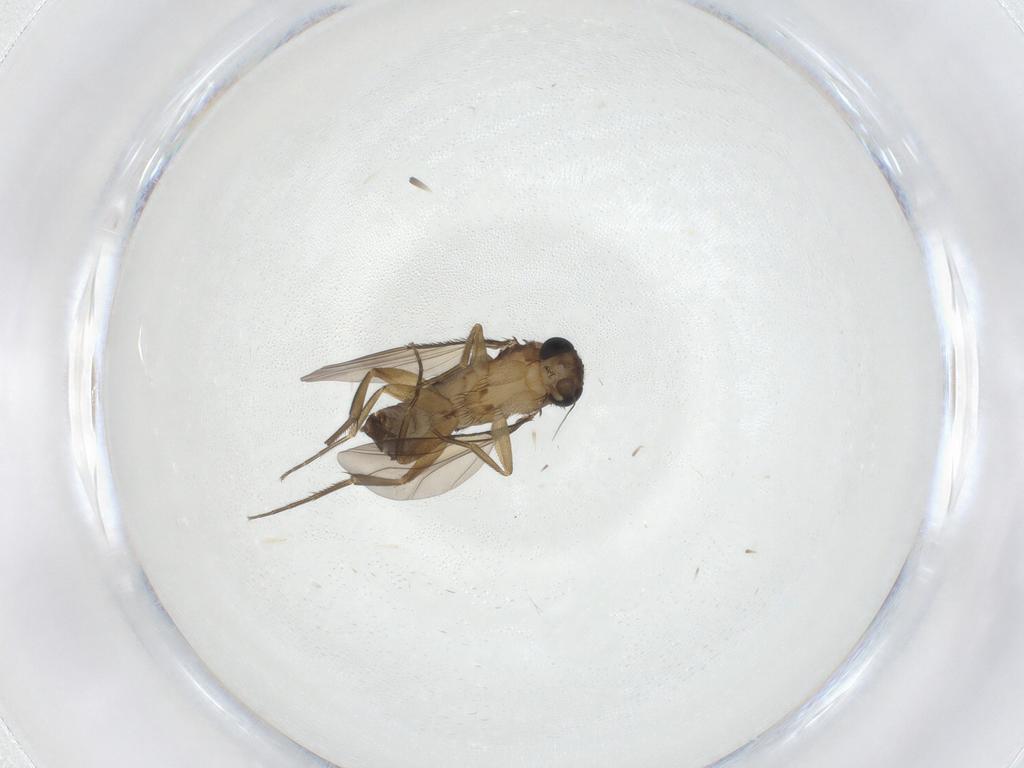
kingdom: Animalia
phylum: Arthropoda
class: Insecta
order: Diptera
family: Phoridae
